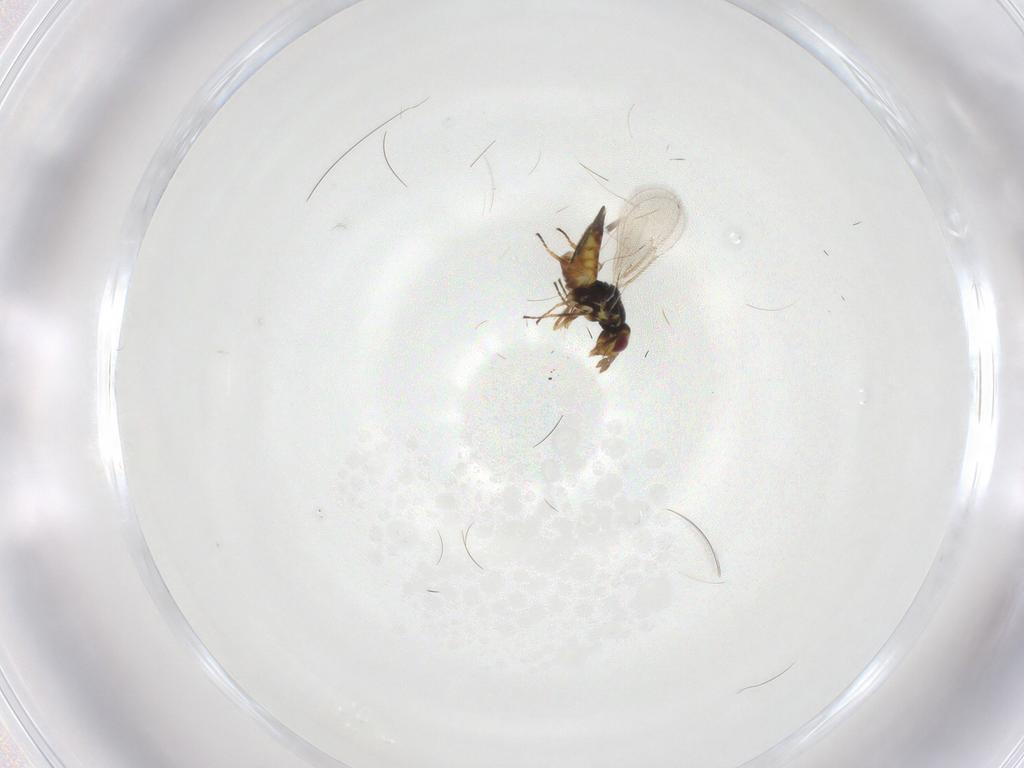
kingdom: Animalia
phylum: Arthropoda
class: Insecta
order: Hymenoptera
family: Eulophidae
